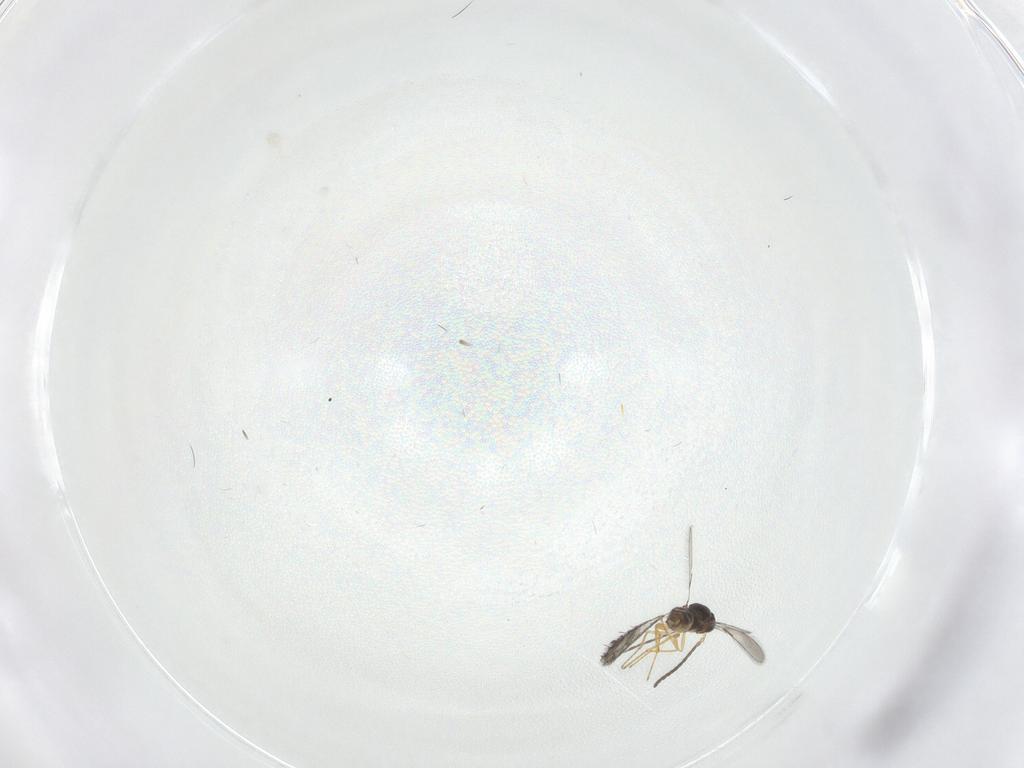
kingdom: Animalia
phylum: Arthropoda
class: Insecta
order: Hymenoptera
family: Mymaridae
